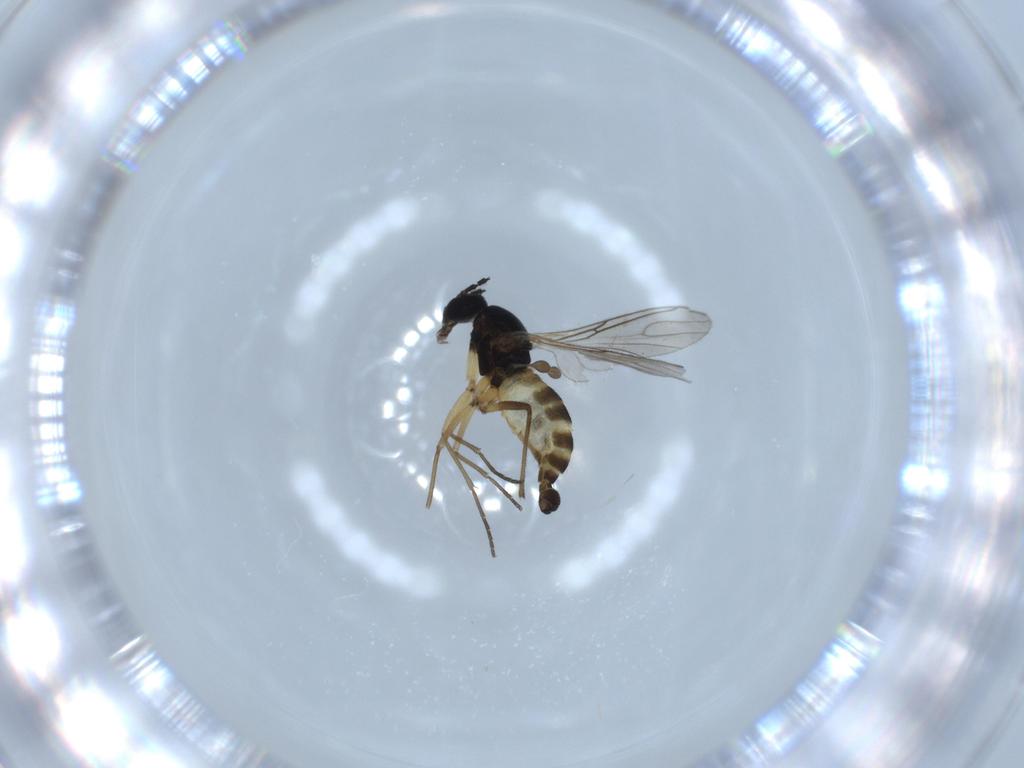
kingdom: Animalia
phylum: Arthropoda
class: Insecta
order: Diptera
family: Sciaridae
